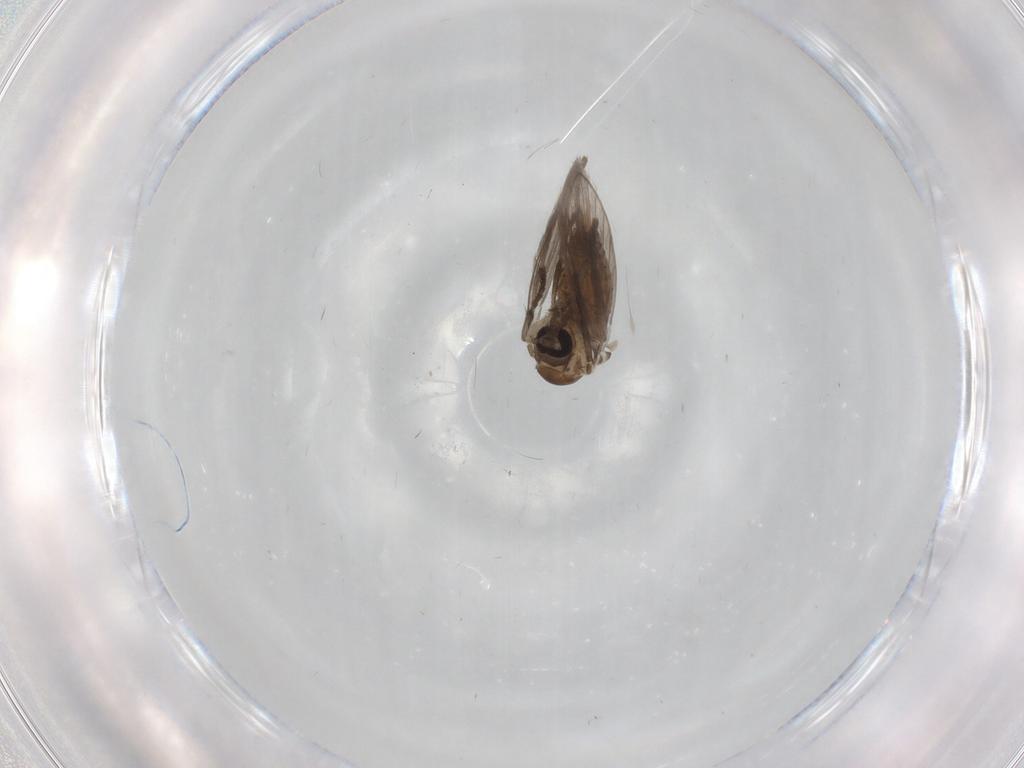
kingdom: Animalia
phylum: Arthropoda
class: Insecta
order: Diptera
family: Psychodidae
